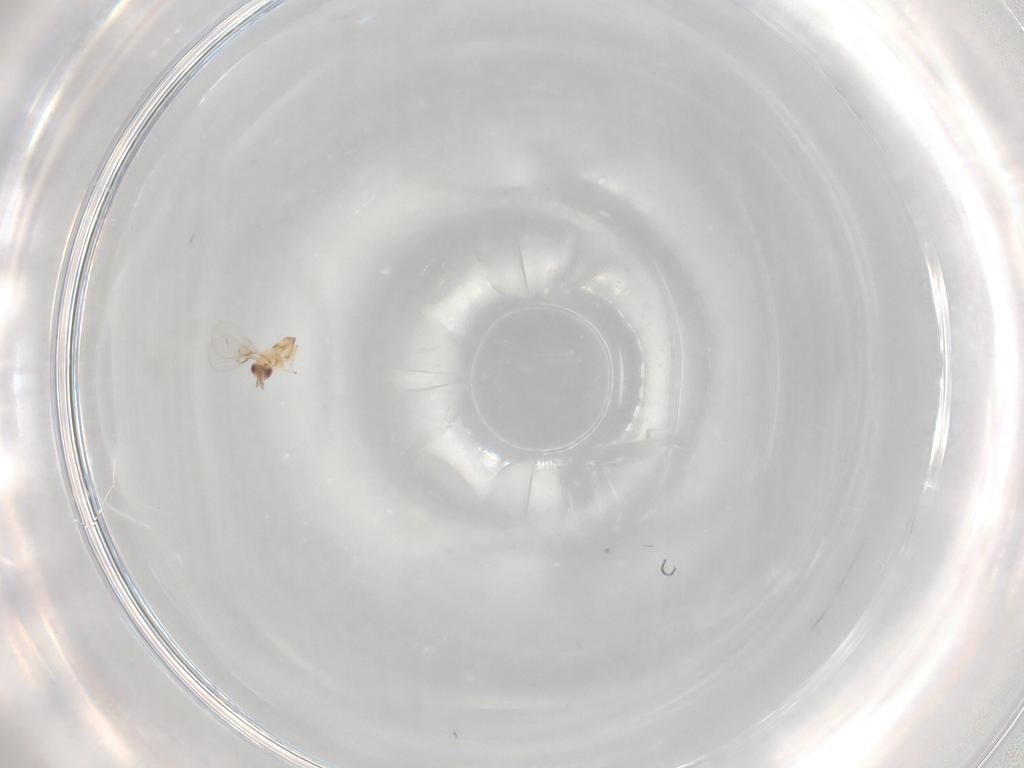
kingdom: Animalia
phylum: Arthropoda
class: Insecta
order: Hymenoptera
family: Trichogrammatidae
